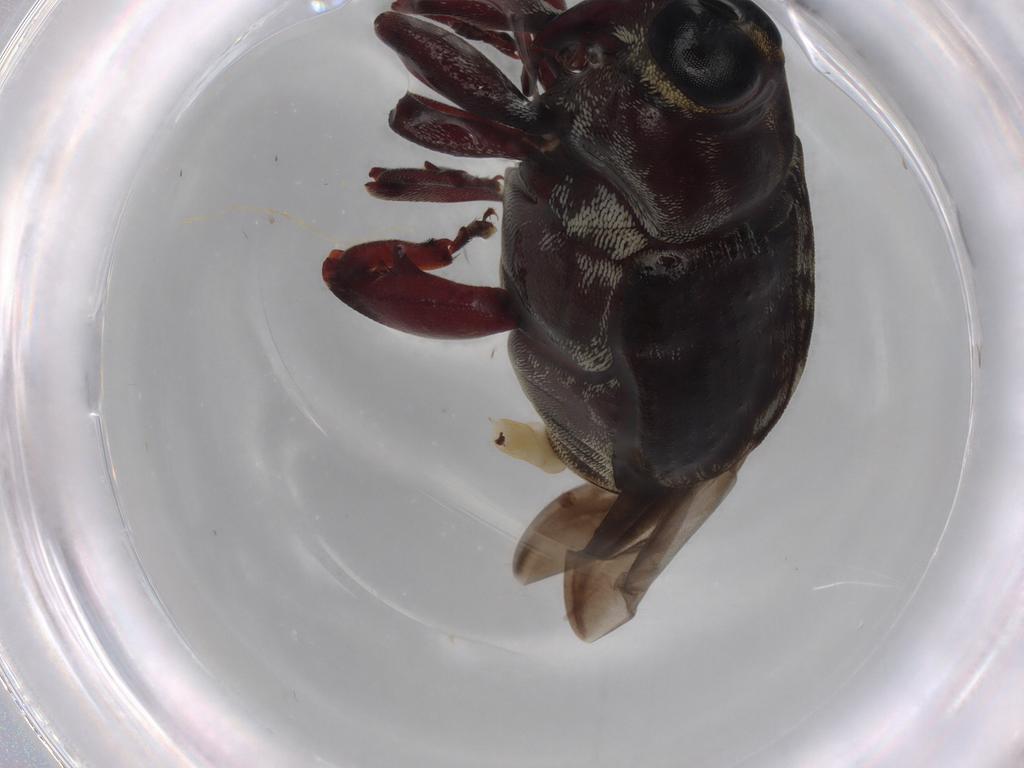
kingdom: Animalia
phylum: Arthropoda
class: Insecta
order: Coleoptera
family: Curculionidae
